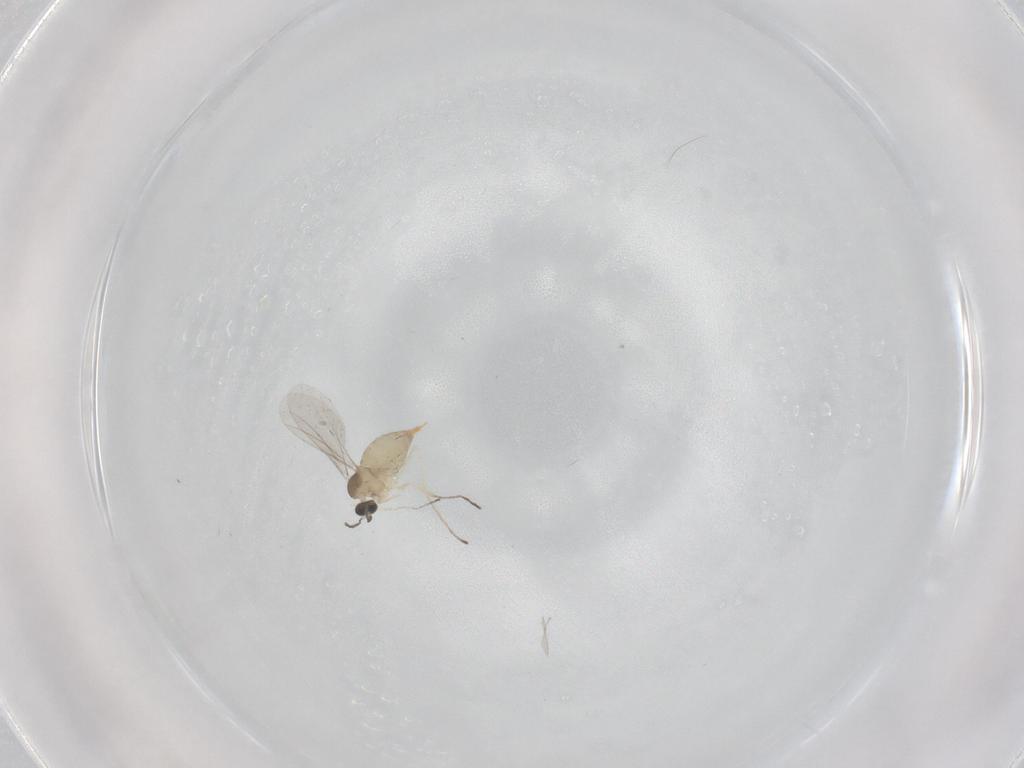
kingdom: Animalia
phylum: Arthropoda
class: Insecta
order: Diptera
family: Cecidomyiidae
